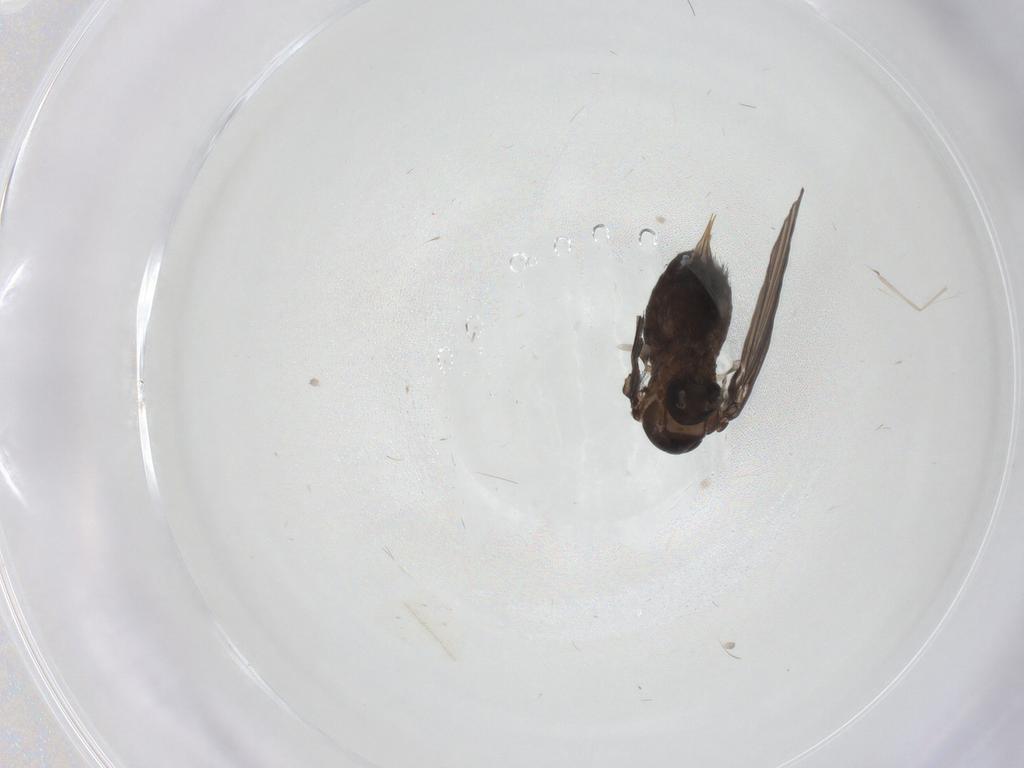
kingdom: Animalia
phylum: Arthropoda
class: Insecta
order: Diptera
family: Psychodidae
